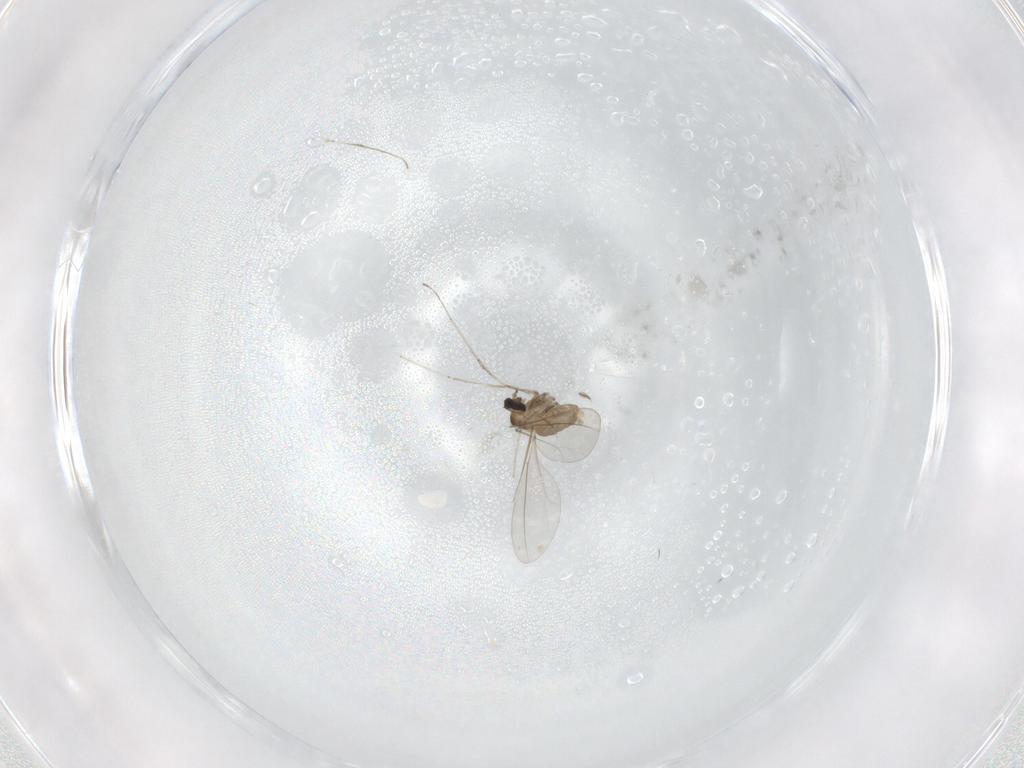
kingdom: Animalia
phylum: Arthropoda
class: Insecta
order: Diptera
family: Cecidomyiidae
